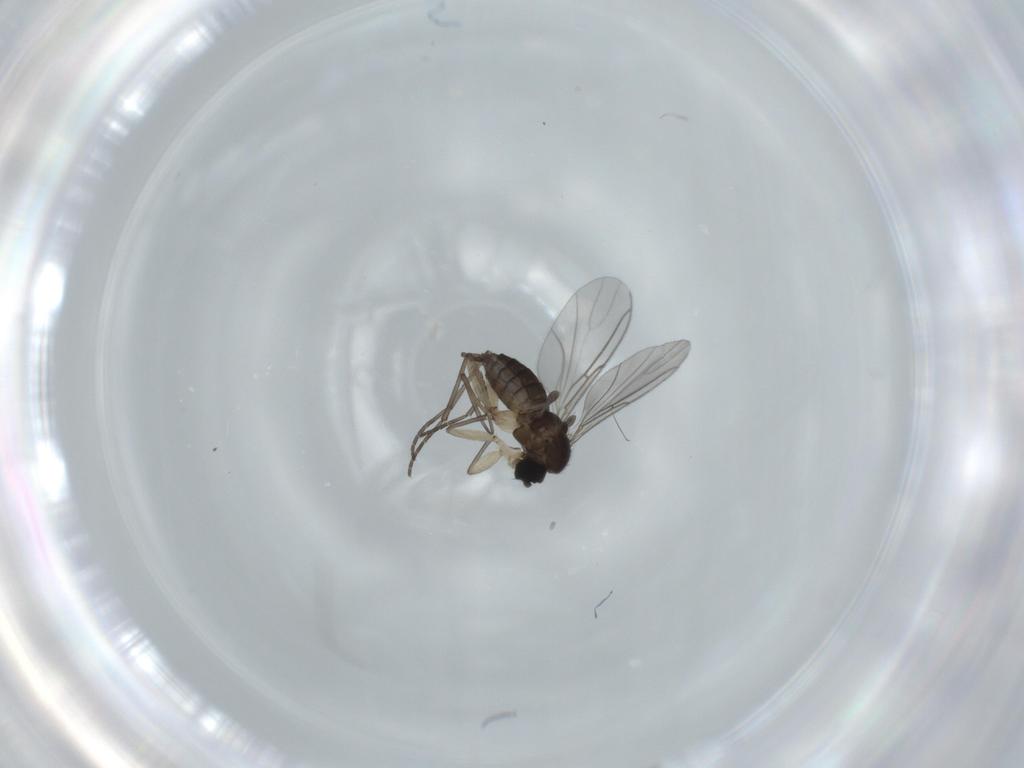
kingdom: Animalia
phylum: Arthropoda
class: Insecta
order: Diptera
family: Sciaridae
